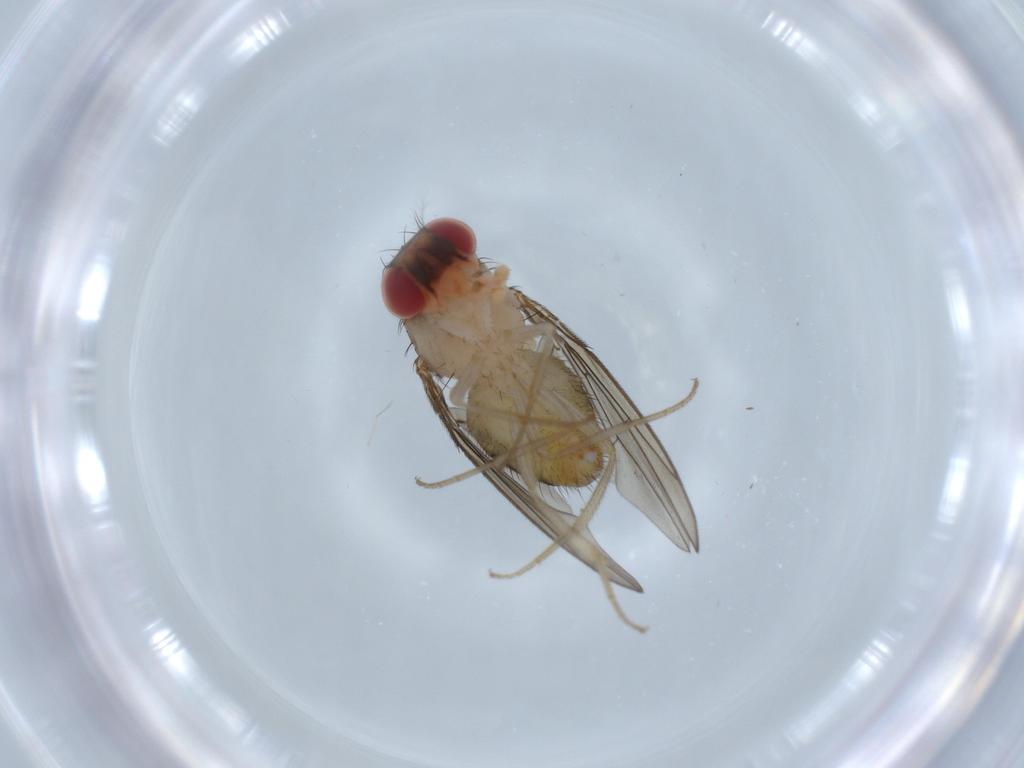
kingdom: Animalia
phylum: Arthropoda
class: Insecta
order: Diptera
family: Drosophilidae
